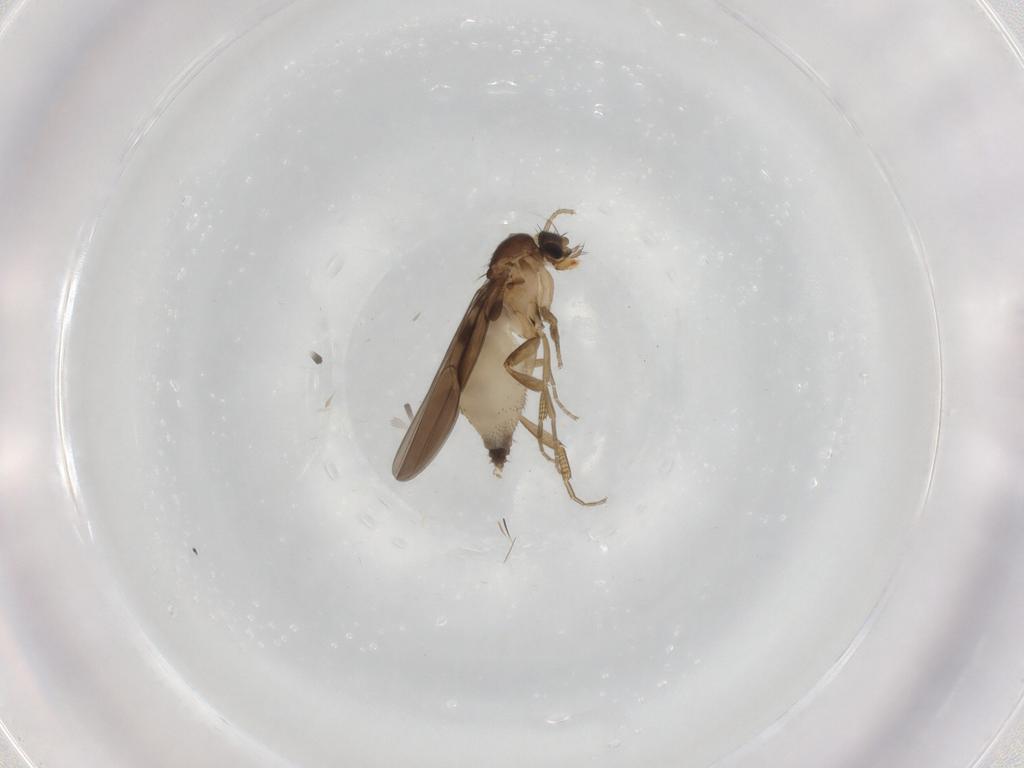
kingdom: Animalia
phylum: Arthropoda
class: Insecta
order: Diptera
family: Phoridae
